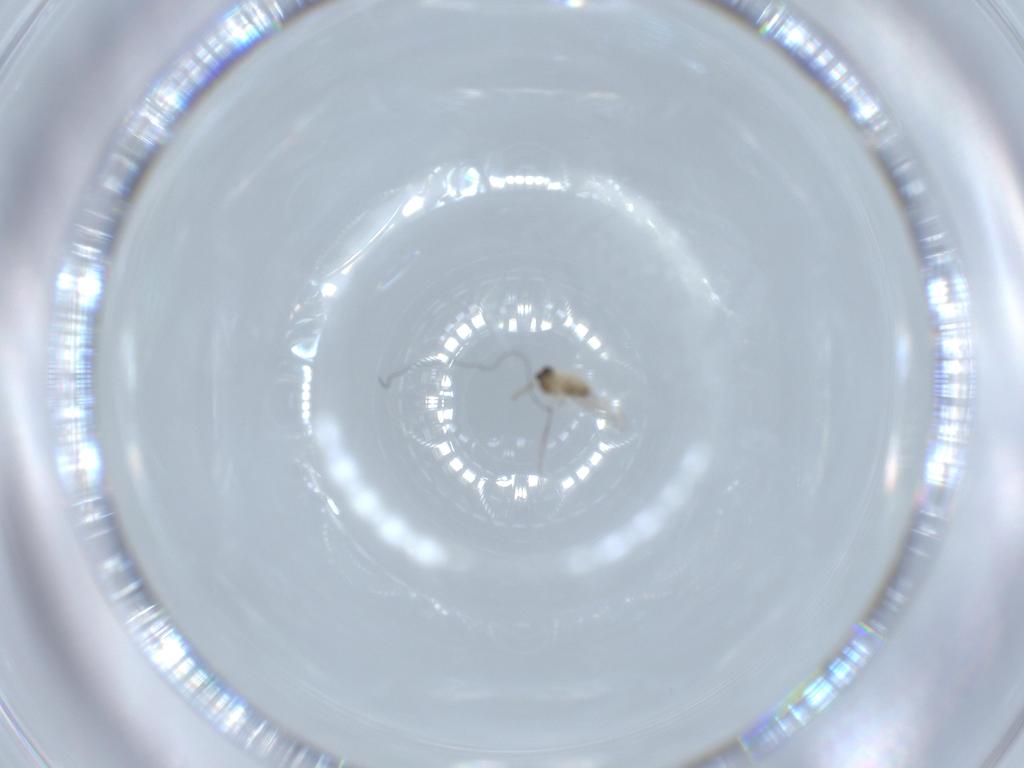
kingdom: Animalia
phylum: Arthropoda
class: Insecta
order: Diptera
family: Cecidomyiidae
